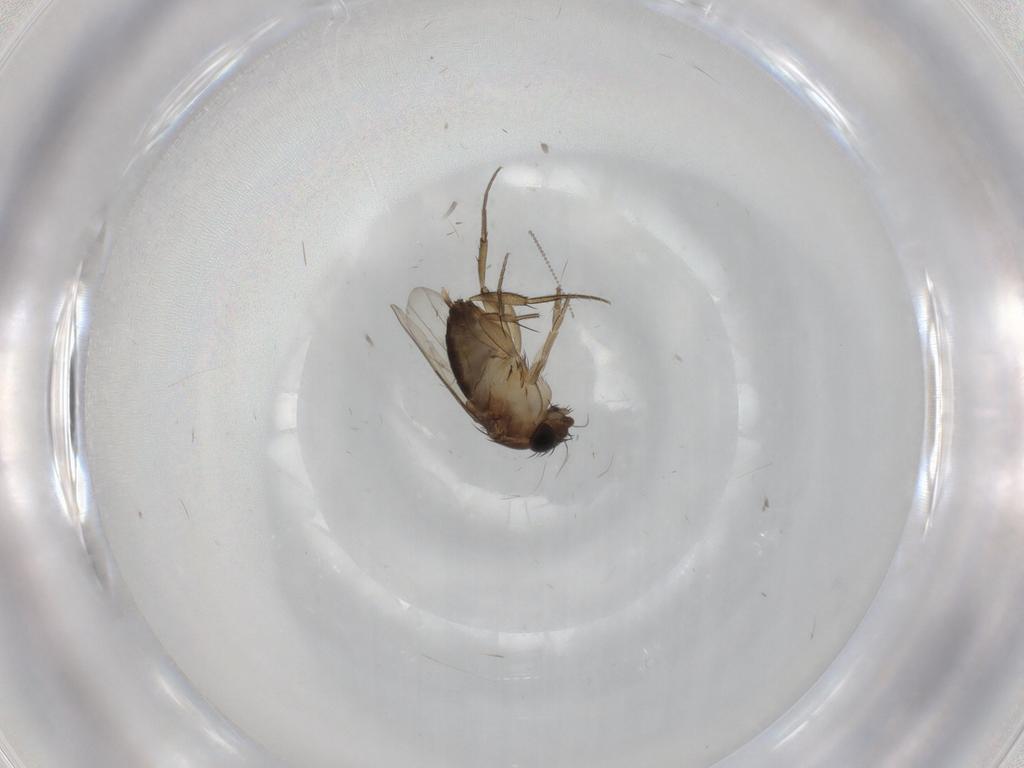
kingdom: Animalia
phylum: Arthropoda
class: Insecta
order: Diptera
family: Phoridae
